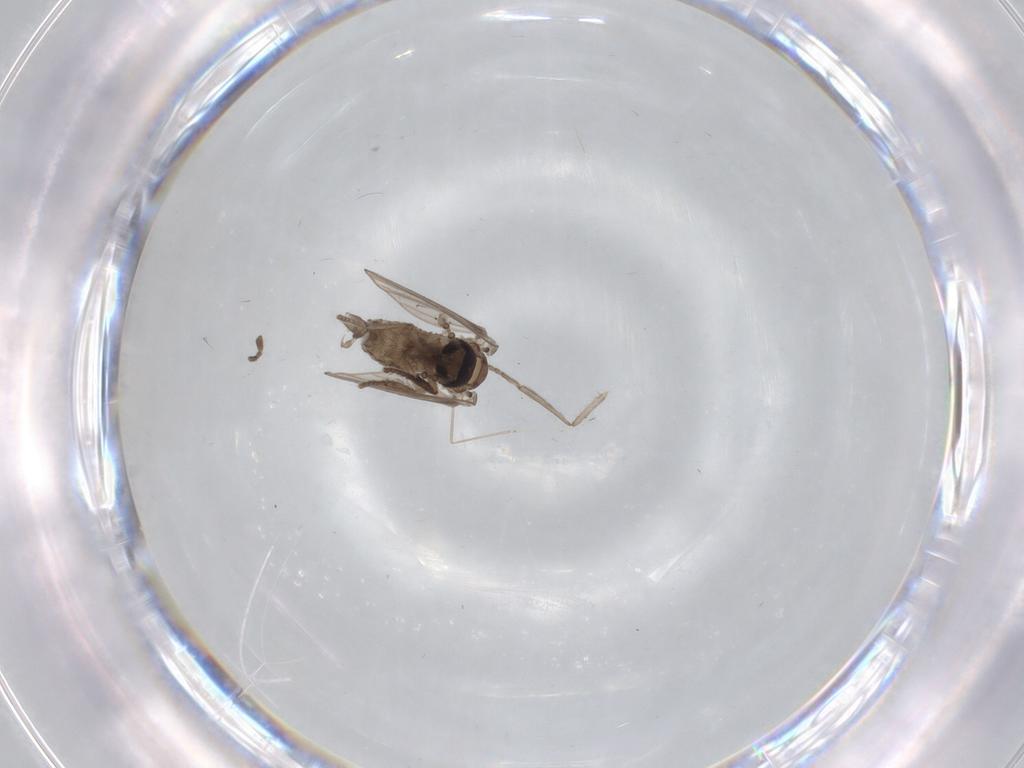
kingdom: Animalia
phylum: Arthropoda
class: Insecta
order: Diptera
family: Psychodidae
